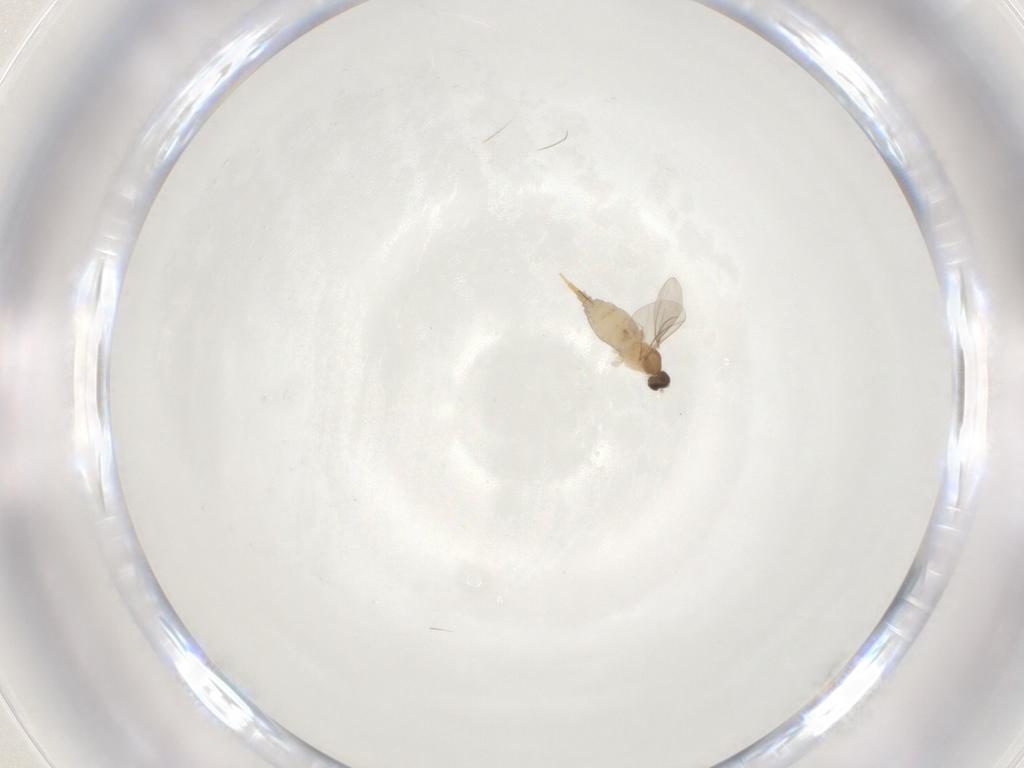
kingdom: Animalia
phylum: Arthropoda
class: Insecta
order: Diptera
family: Cecidomyiidae
